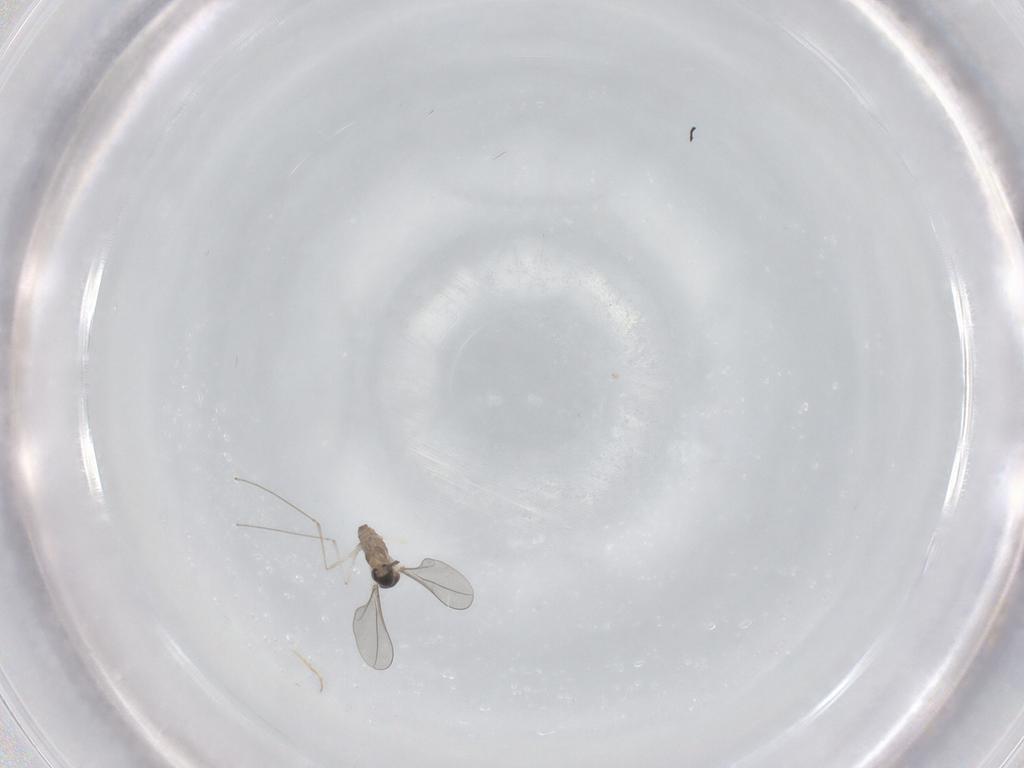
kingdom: Animalia
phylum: Arthropoda
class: Insecta
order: Diptera
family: Cecidomyiidae
